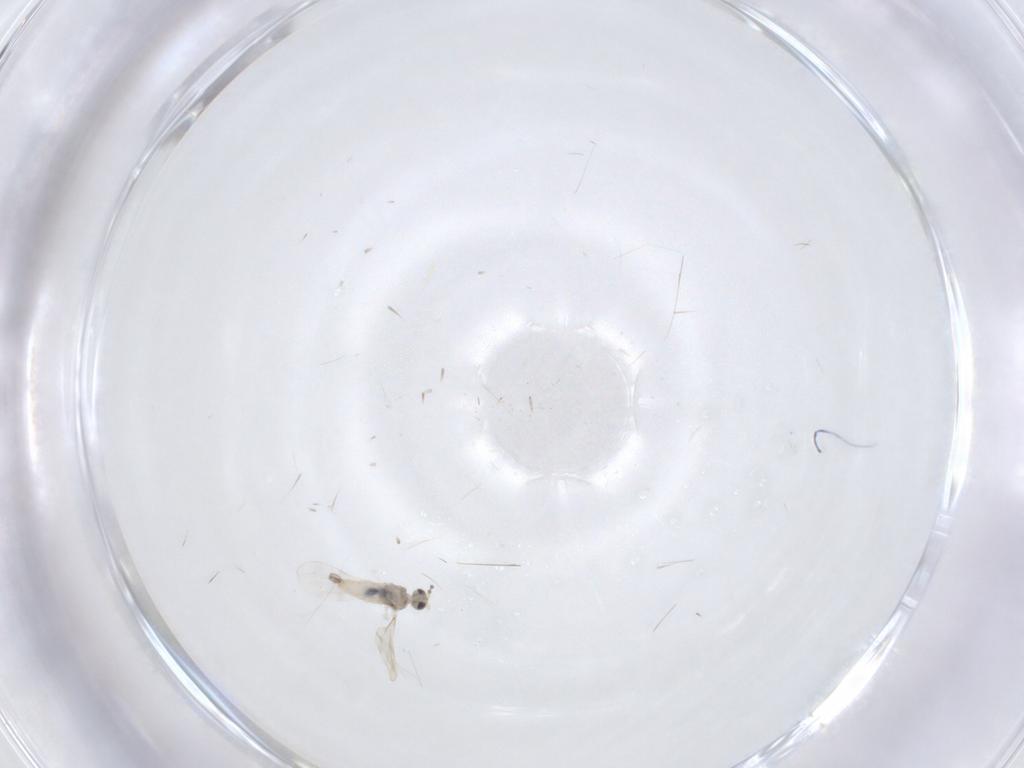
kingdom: Animalia
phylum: Arthropoda
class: Insecta
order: Diptera
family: Cecidomyiidae
